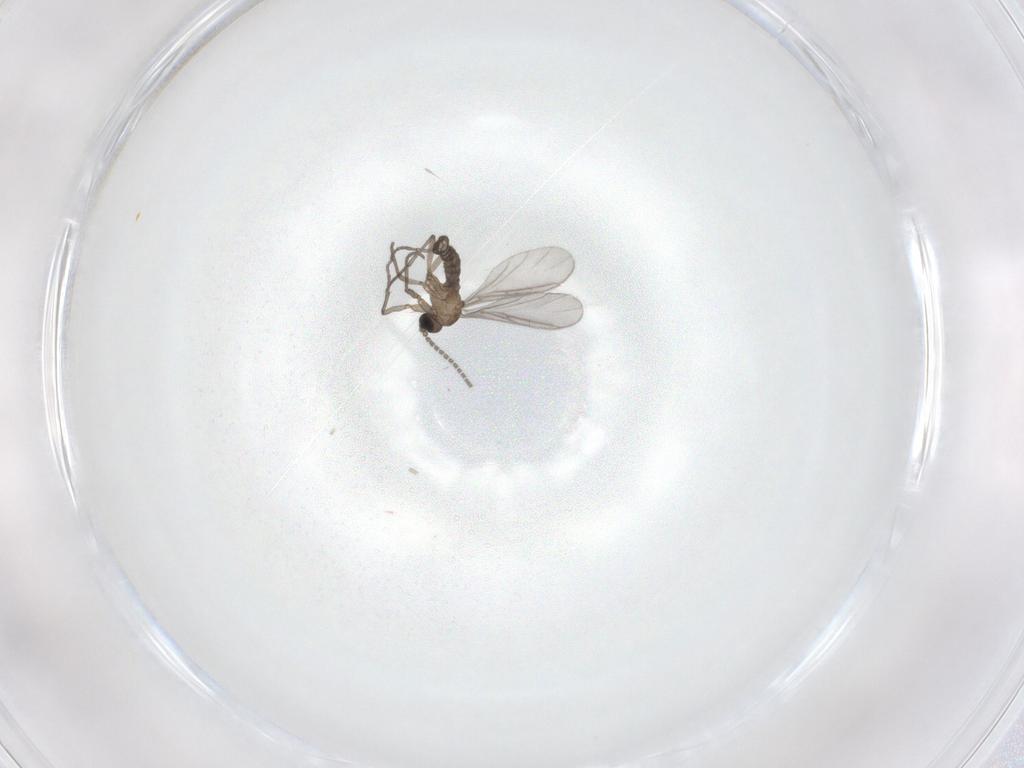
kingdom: Animalia
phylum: Arthropoda
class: Insecta
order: Diptera
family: Sciaridae
